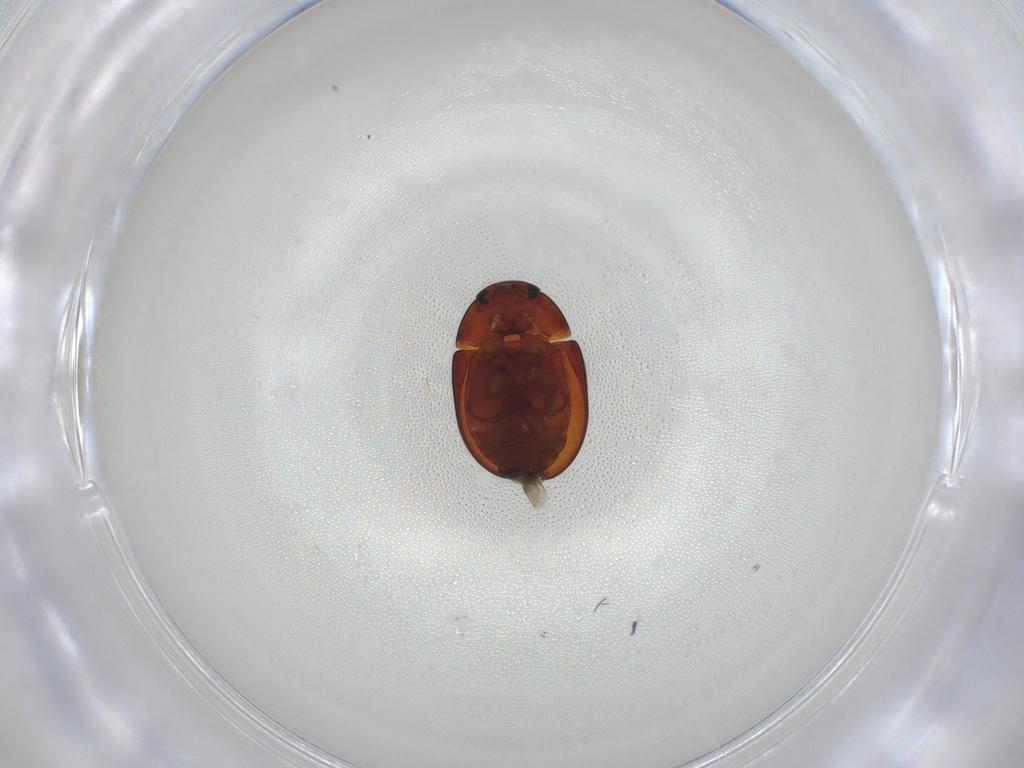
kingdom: Animalia
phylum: Arthropoda
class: Insecta
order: Coleoptera
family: Phalacridae
